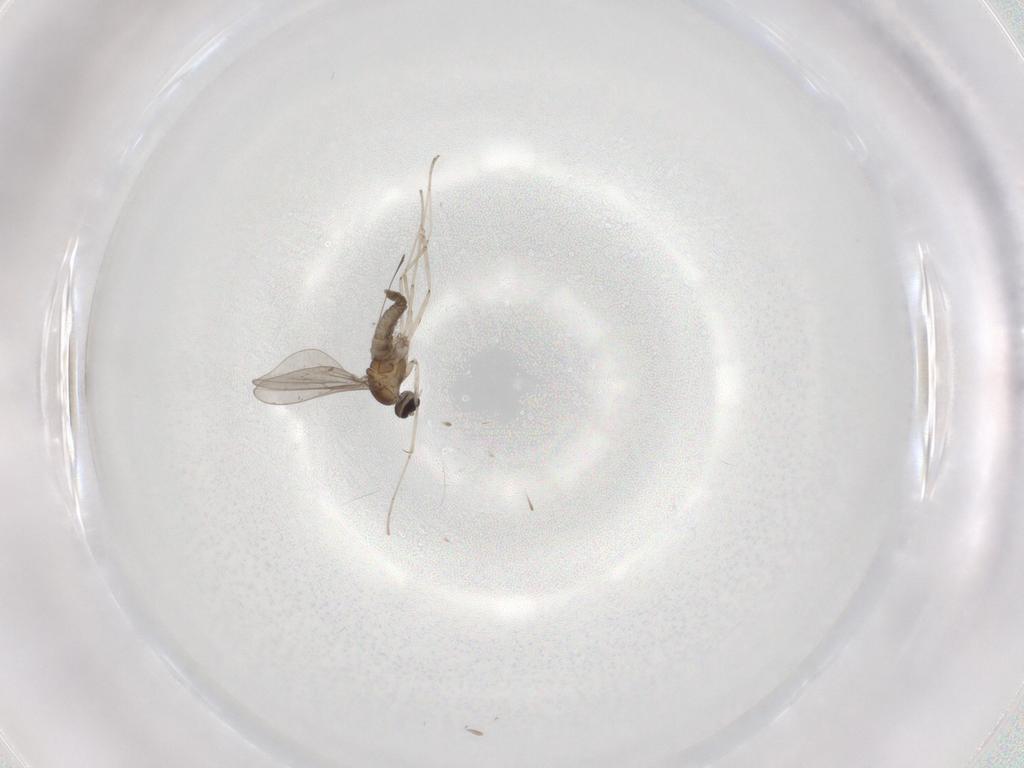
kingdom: Animalia
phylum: Arthropoda
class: Insecta
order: Diptera
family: Cecidomyiidae
